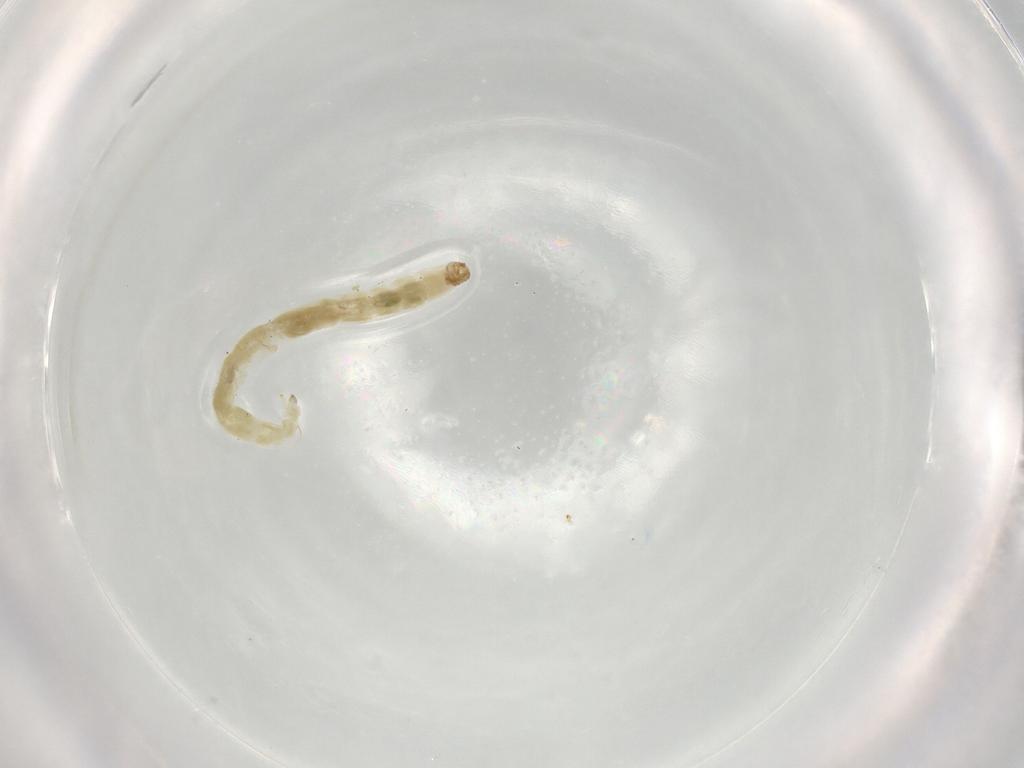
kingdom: Animalia
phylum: Arthropoda
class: Insecta
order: Diptera
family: Chironomidae
